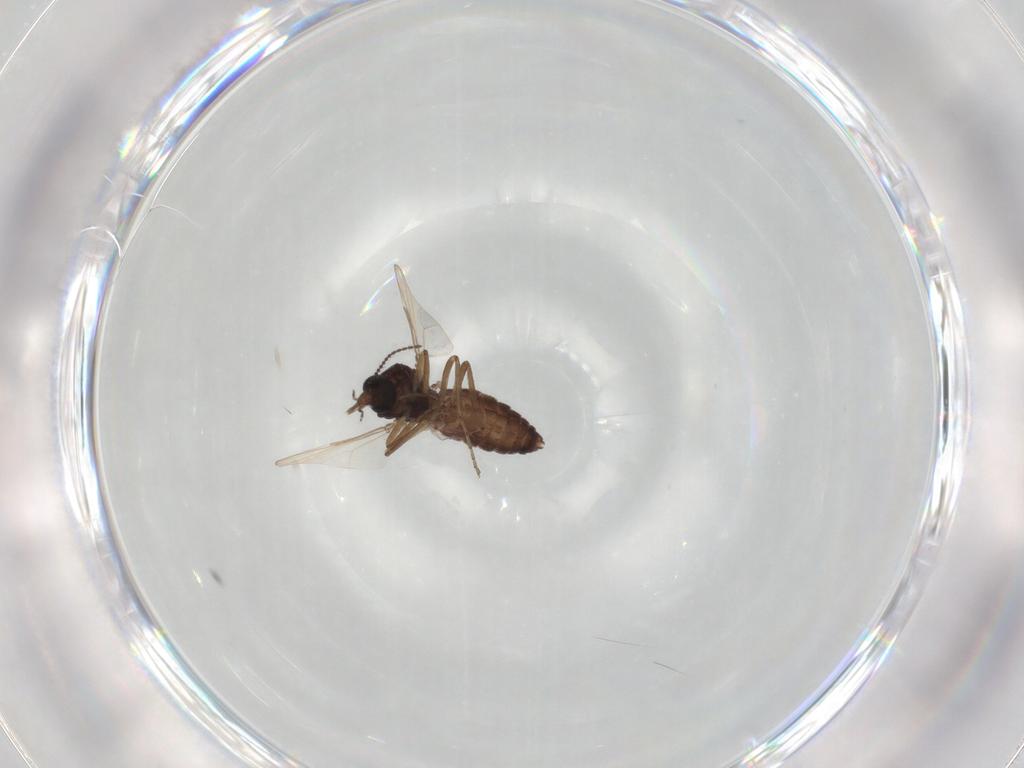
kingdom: Animalia
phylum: Arthropoda
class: Insecta
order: Diptera
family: Ceratopogonidae
